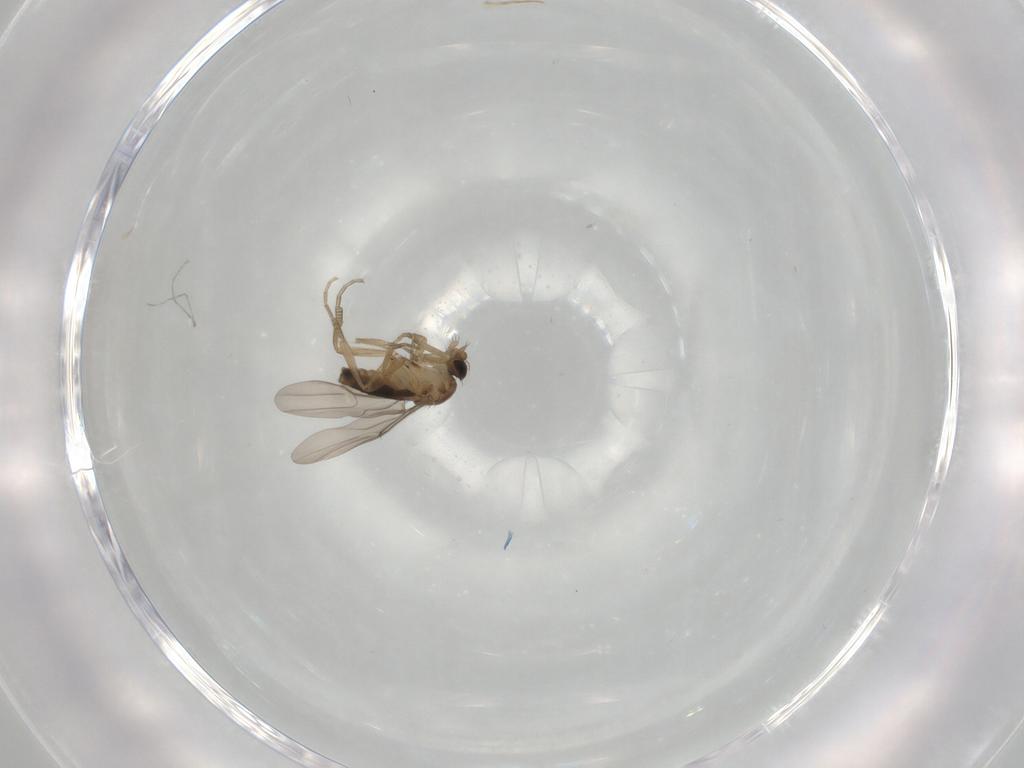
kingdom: Animalia
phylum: Arthropoda
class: Insecta
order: Diptera
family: Phoridae
